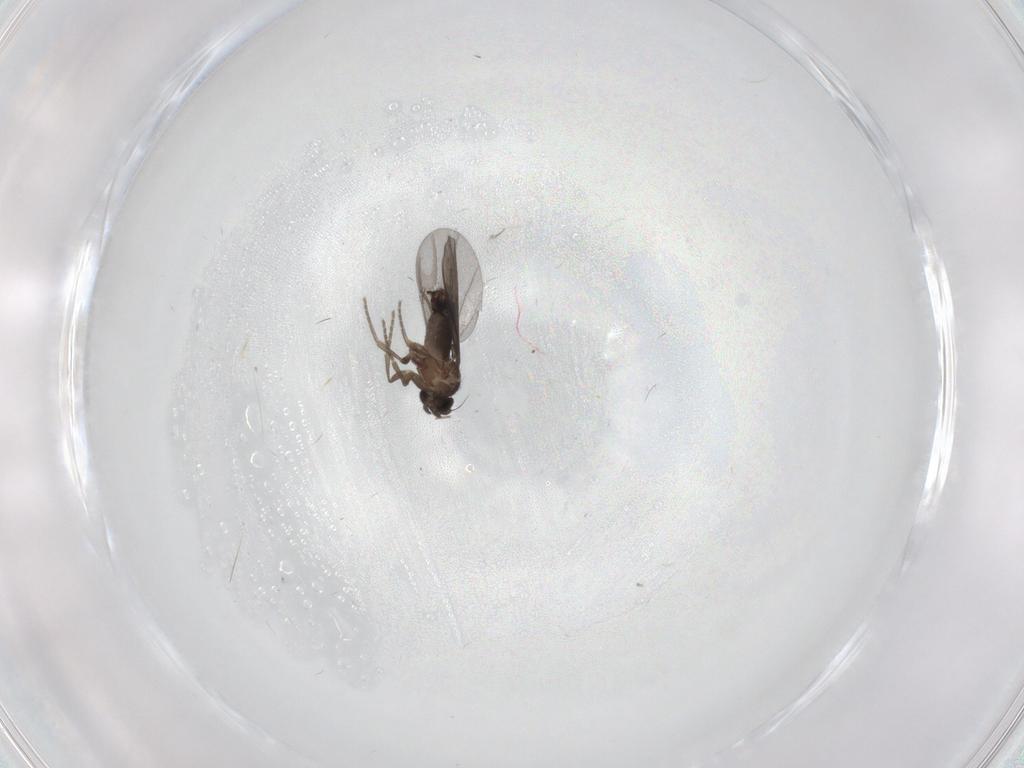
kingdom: Animalia
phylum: Arthropoda
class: Insecta
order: Diptera
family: Phoridae
